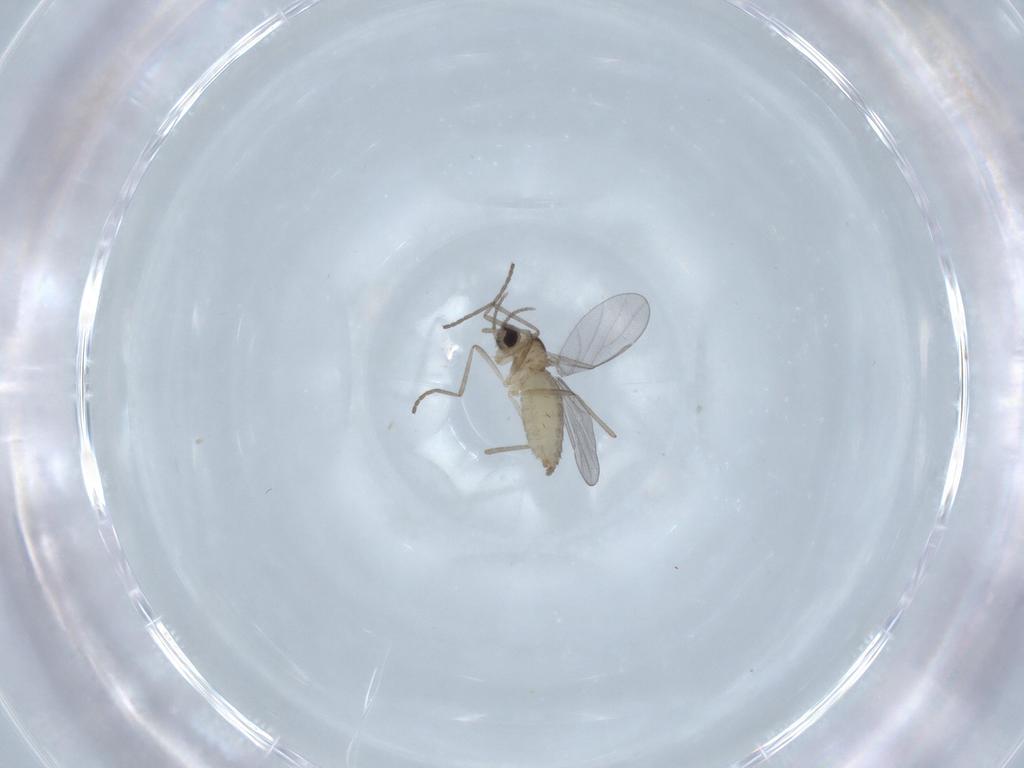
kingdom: Animalia
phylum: Arthropoda
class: Insecta
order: Diptera
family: Cecidomyiidae
